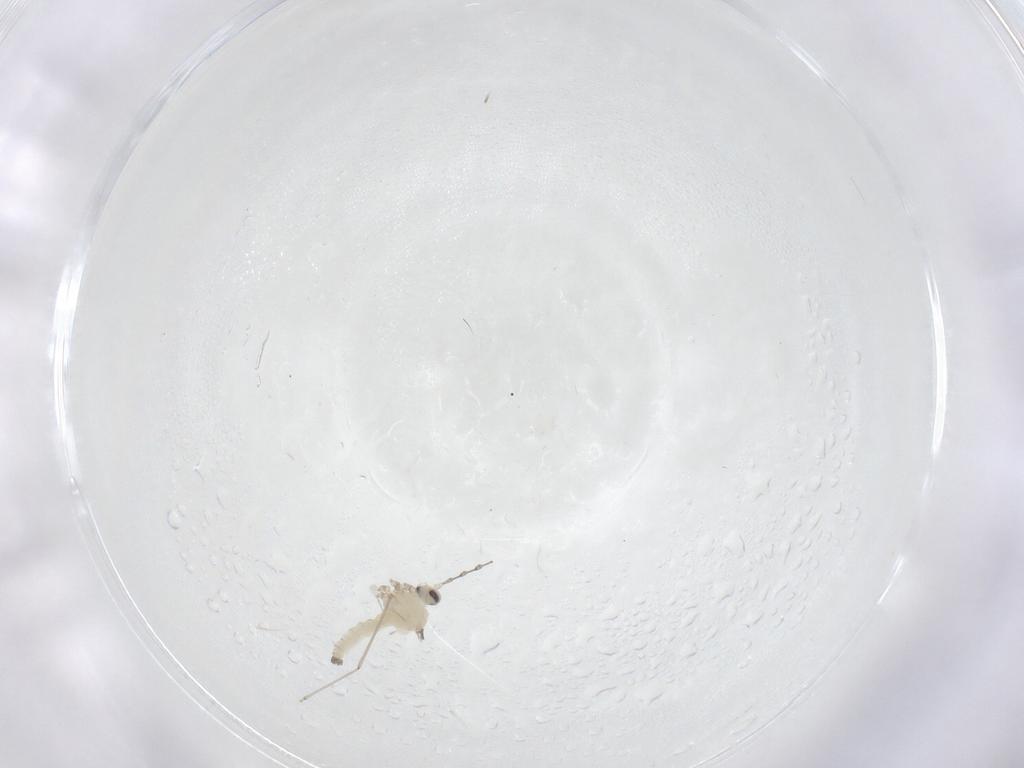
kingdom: Animalia
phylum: Arthropoda
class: Insecta
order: Diptera
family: Cecidomyiidae
